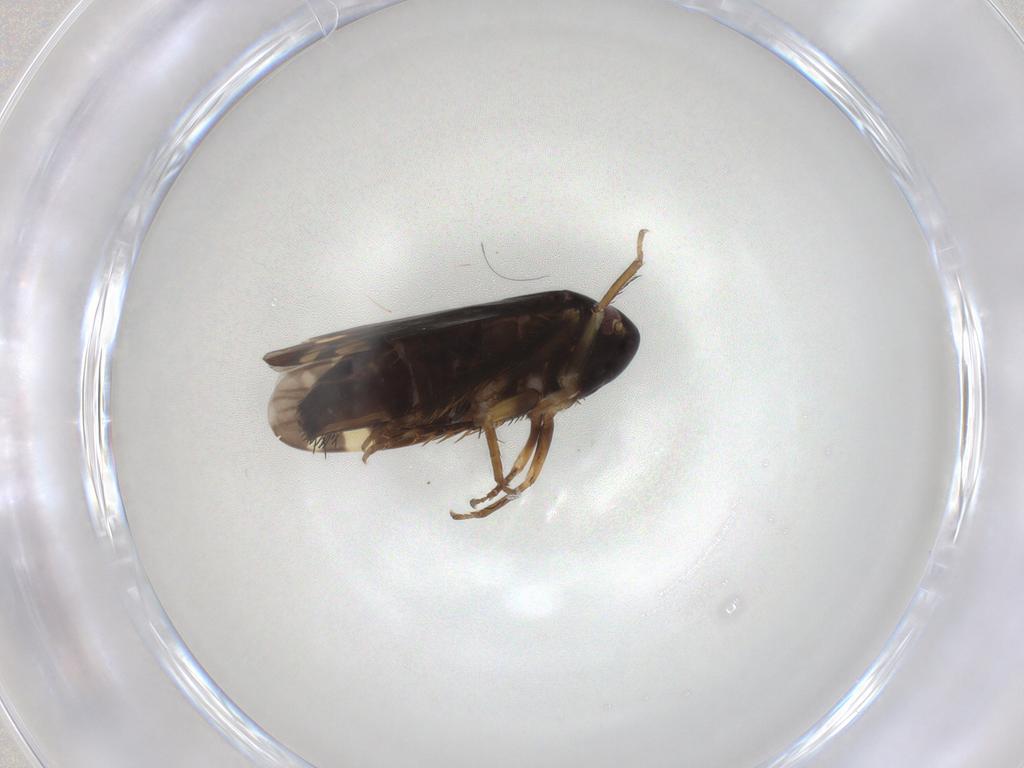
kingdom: Animalia
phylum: Arthropoda
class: Insecta
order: Hemiptera
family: Cicadellidae
